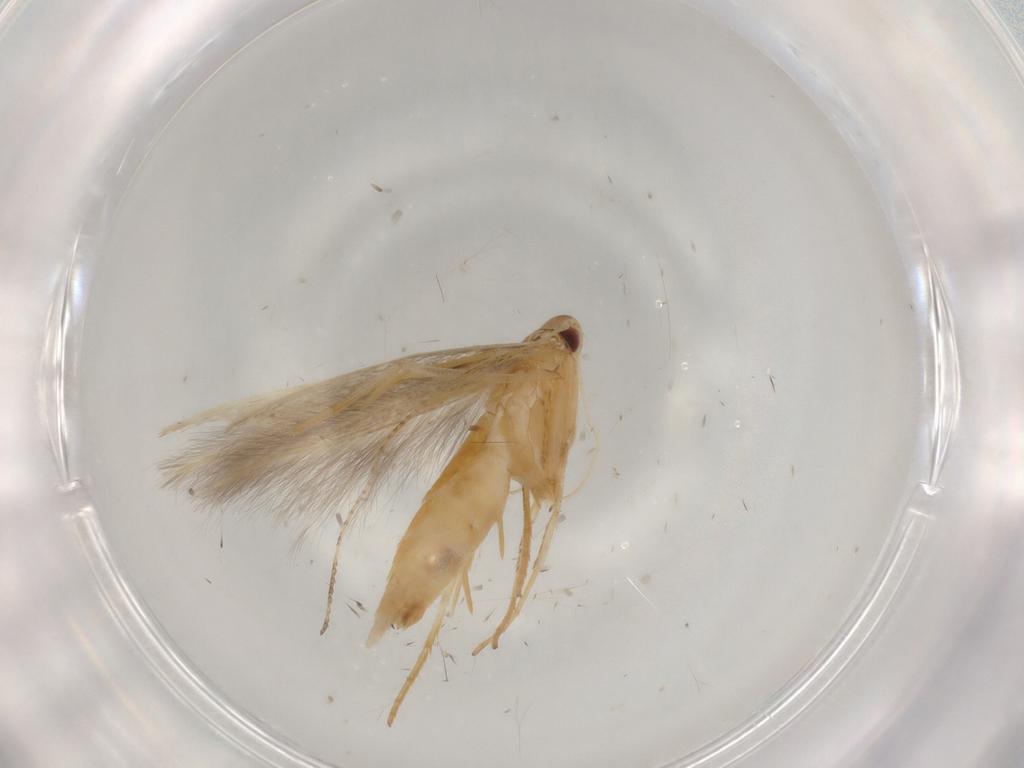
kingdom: Animalia
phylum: Arthropoda
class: Insecta
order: Lepidoptera
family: Cosmopterigidae
